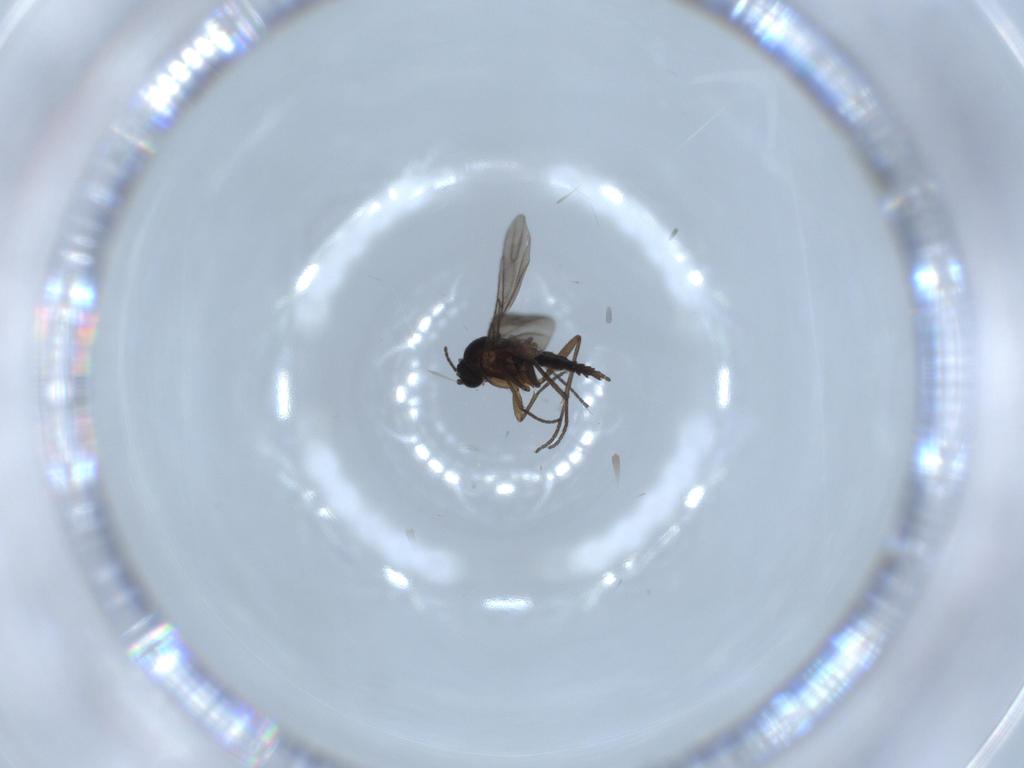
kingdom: Animalia
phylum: Arthropoda
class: Insecta
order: Diptera
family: Sciaridae
